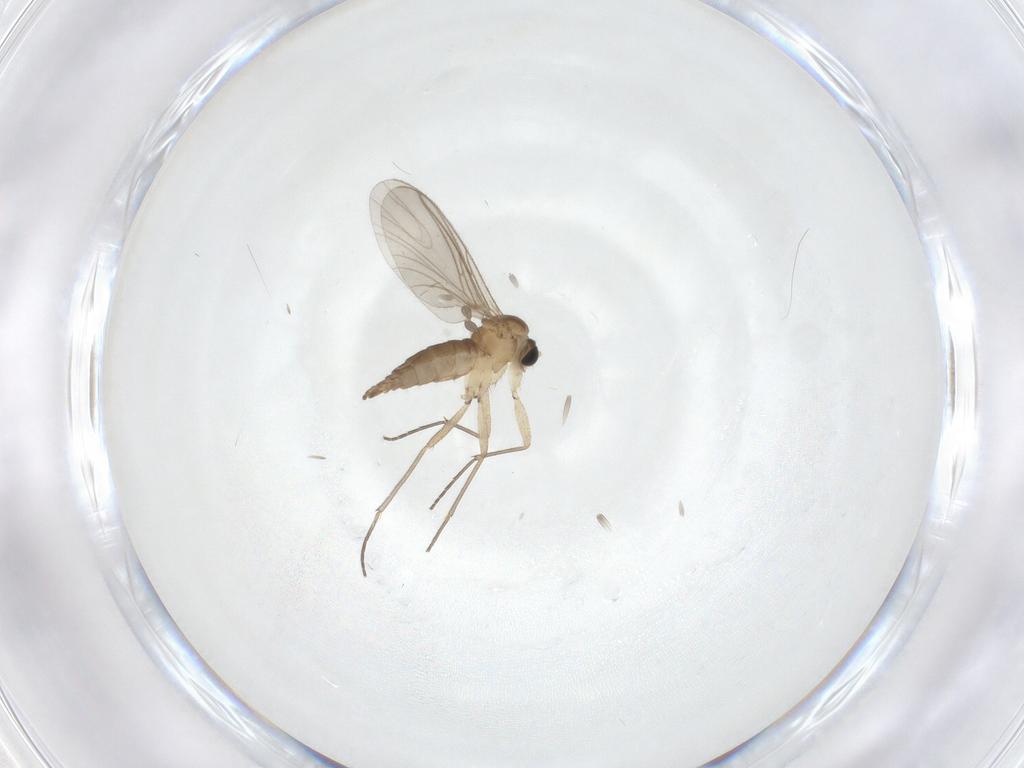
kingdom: Animalia
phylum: Arthropoda
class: Insecta
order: Diptera
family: Sciaridae
